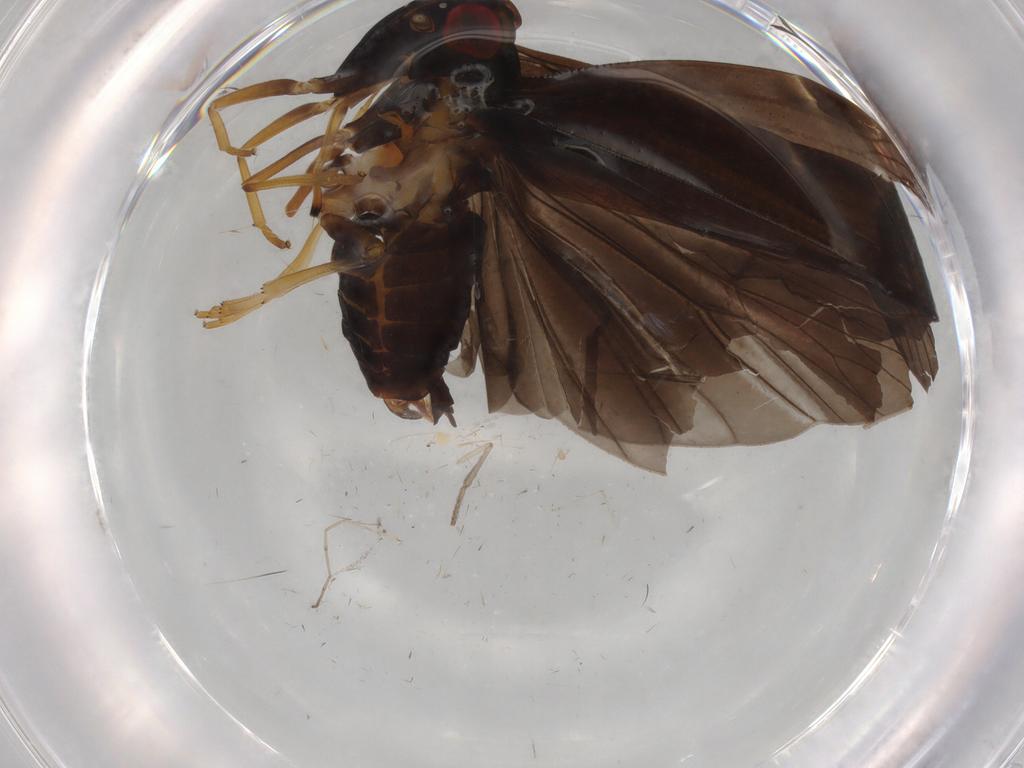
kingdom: Animalia
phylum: Arthropoda
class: Insecta
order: Hemiptera
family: Cixiidae
